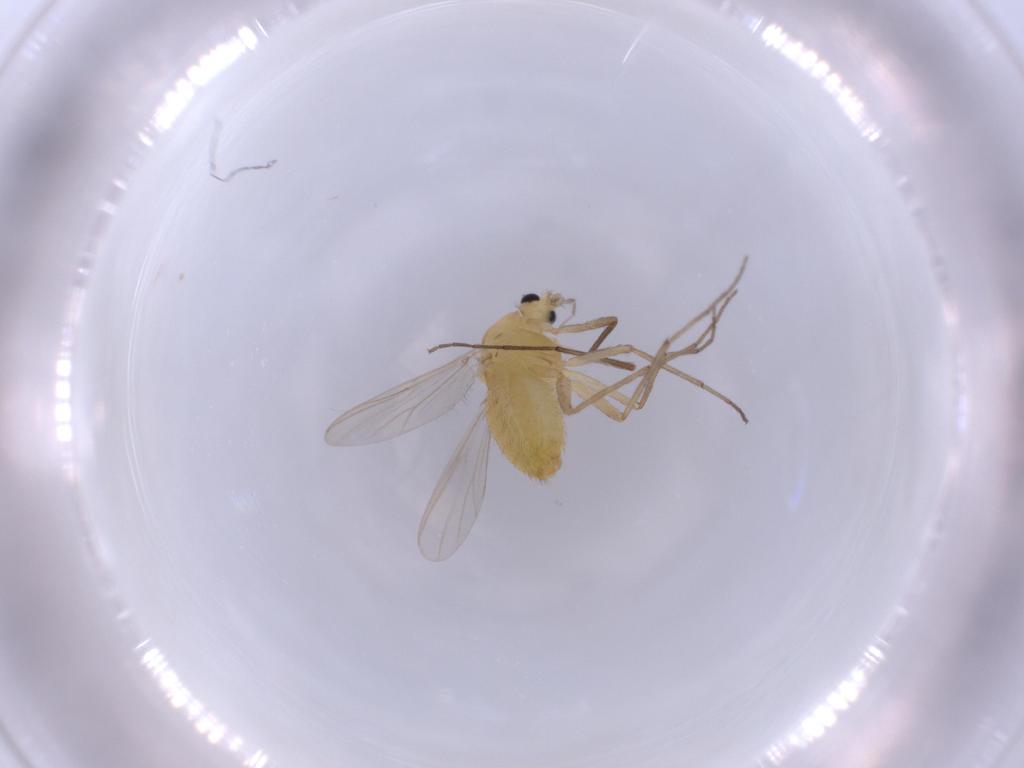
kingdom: Animalia
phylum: Arthropoda
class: Insecta
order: Diptera
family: Chironomidae
